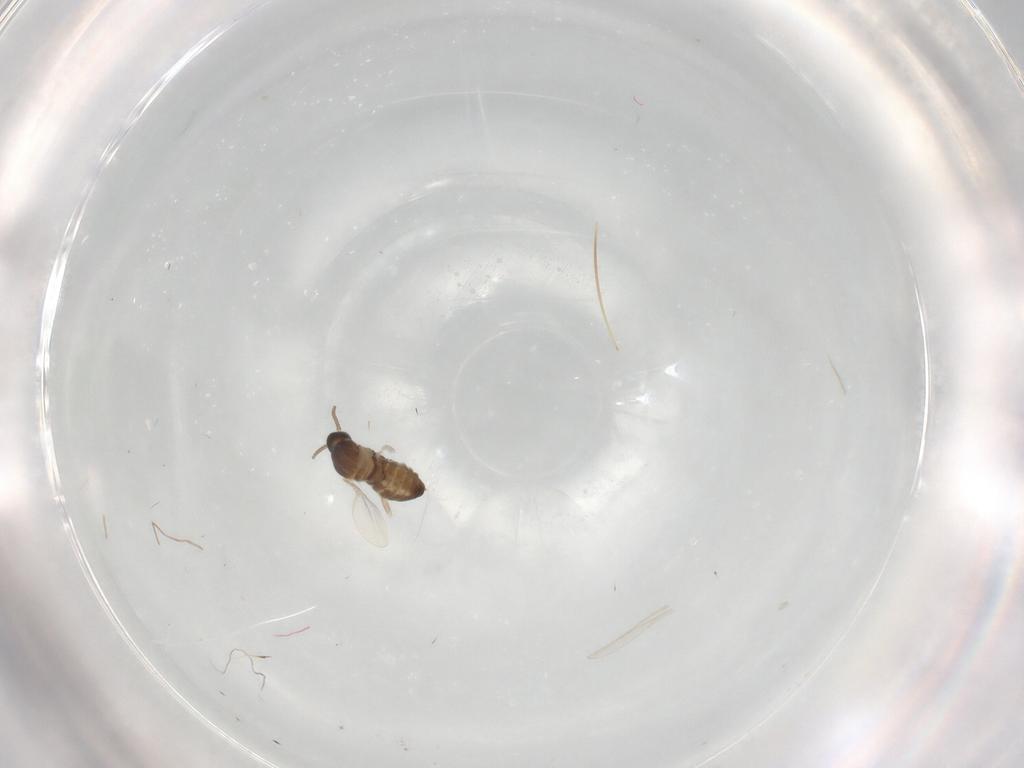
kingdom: Animalia
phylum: Arthropoda
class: Insecta
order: Diptera
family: Cecidomyiidae
